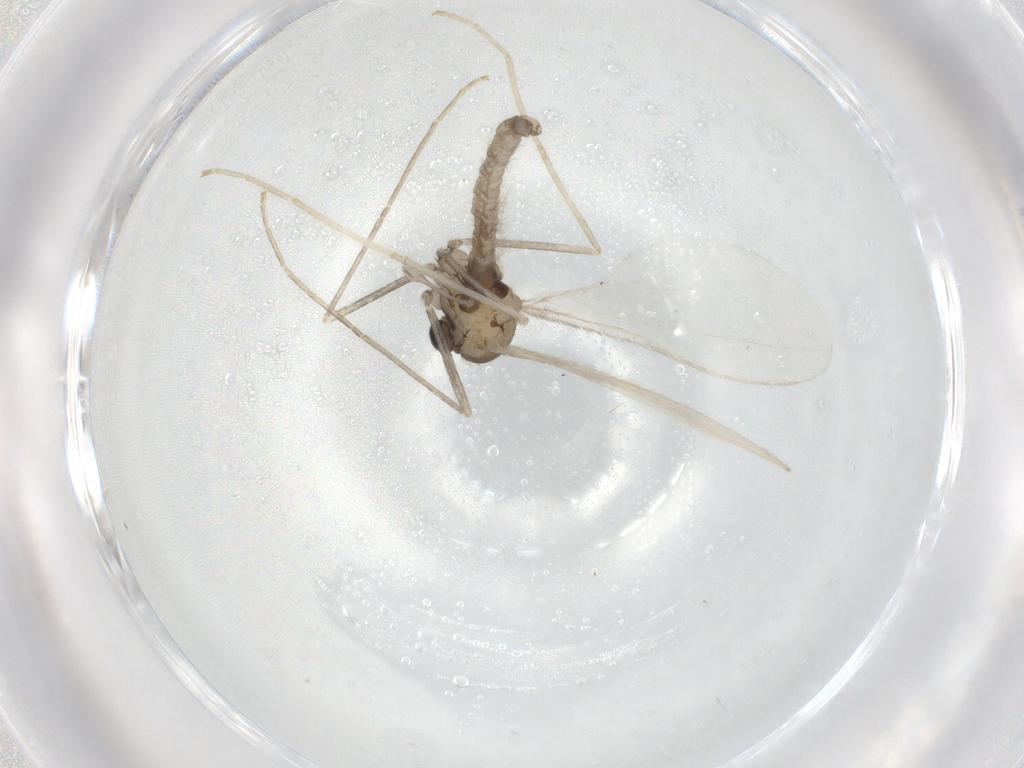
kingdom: Animalia
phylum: Arthropoda
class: Insecta
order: Diptera
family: Cecidomyiidae
